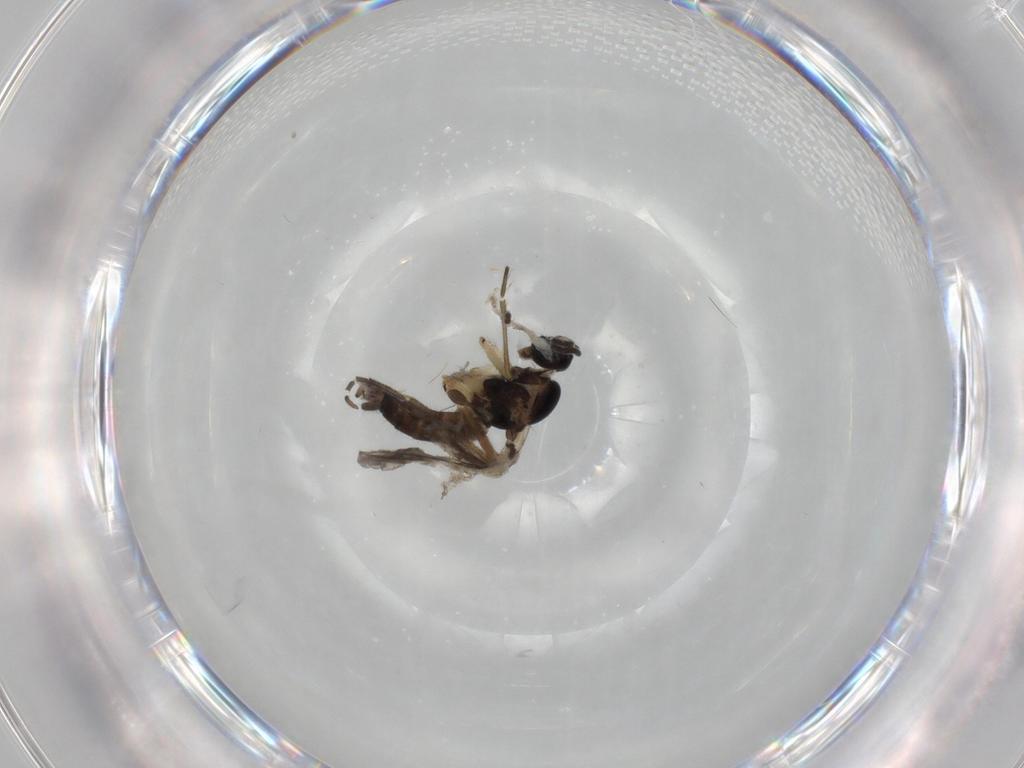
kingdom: Animalia
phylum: Arthropoda
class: Insecta
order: Diptera
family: Sciaridae
